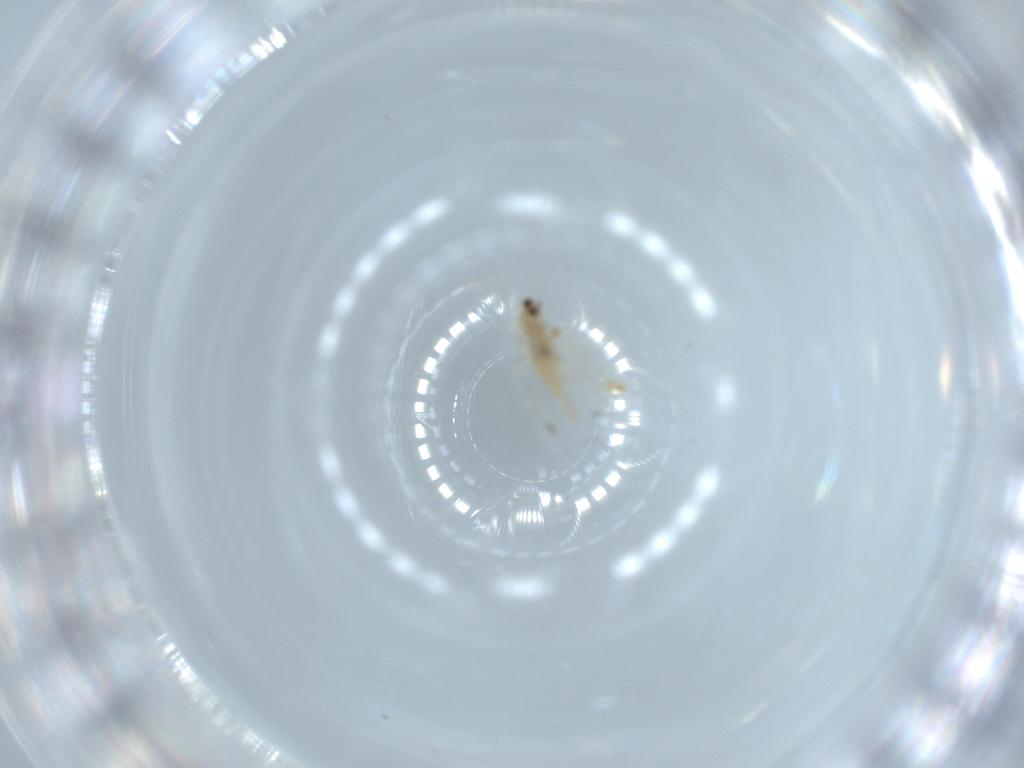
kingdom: Animalia
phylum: Arthropoda
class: Insecta
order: Diptera
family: Cecidomyiidae
